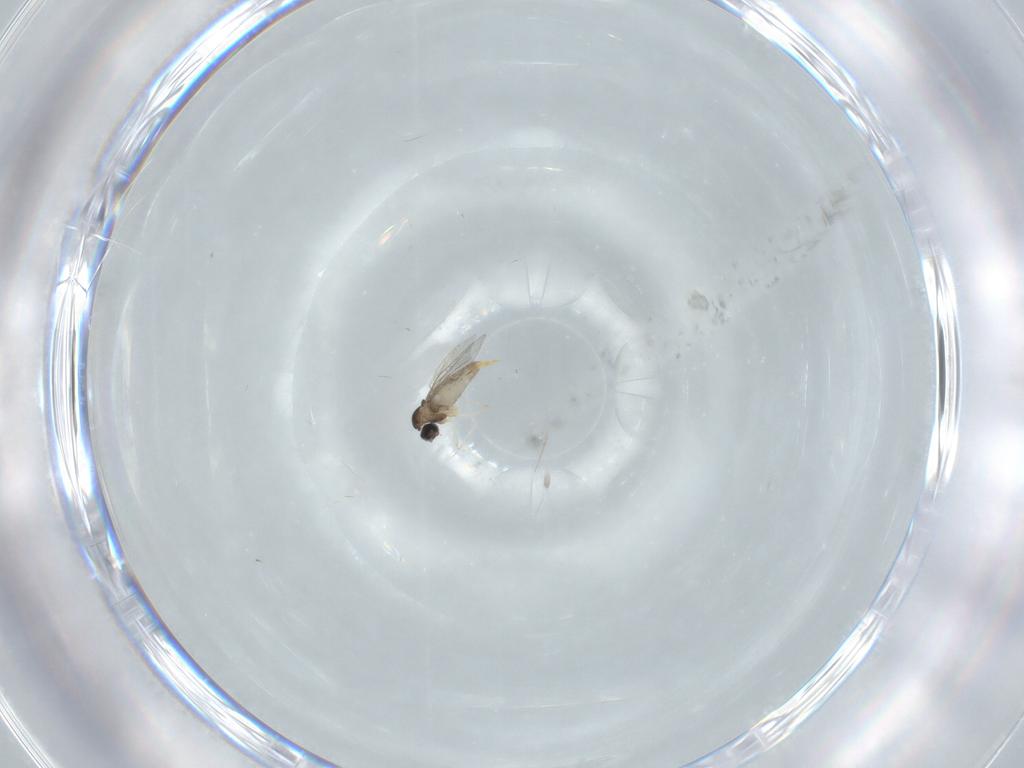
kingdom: Animalia
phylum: Arthropoda
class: Insecta
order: Diptera
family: Cecidomyiidae
